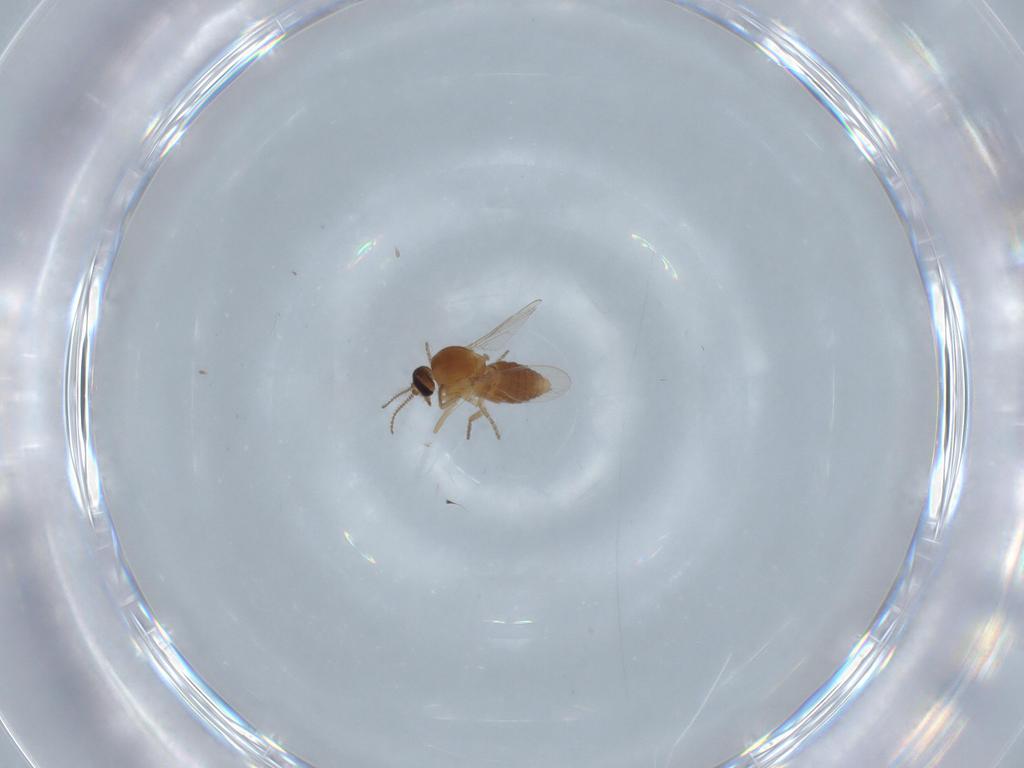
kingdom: Animalia
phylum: Arthropoda
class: Insecta
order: Diptera
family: Ceratopogonidae
